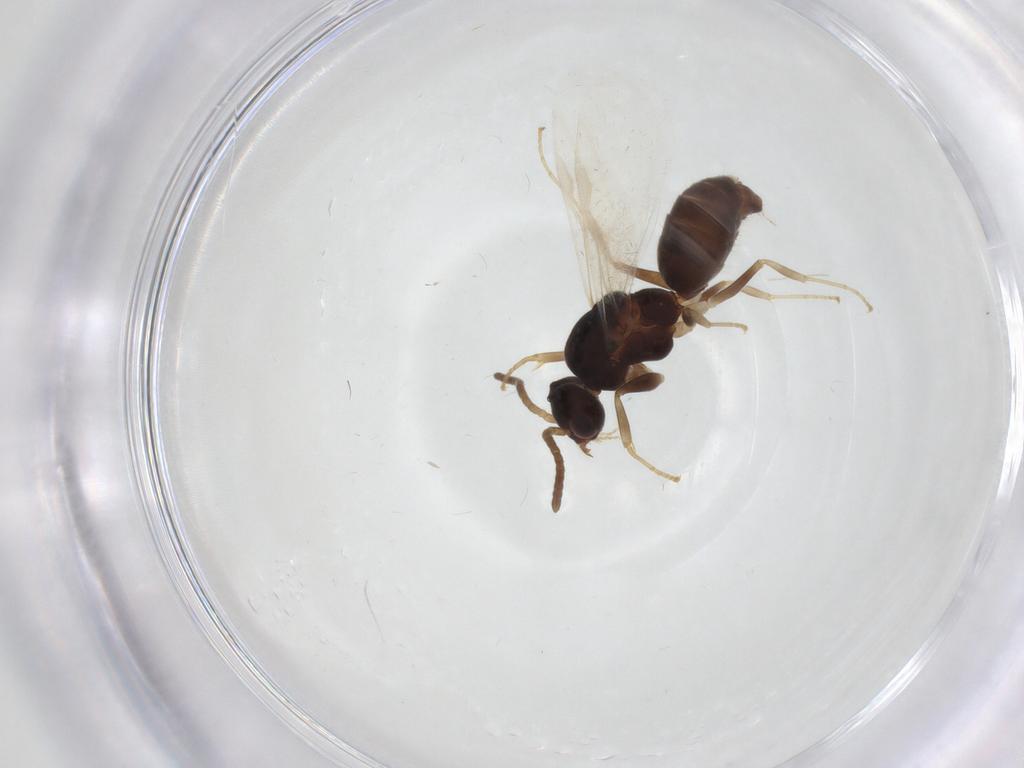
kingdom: Animalia
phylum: Arthropoda
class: Insecta
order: Hymenoptera
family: Formicidae
